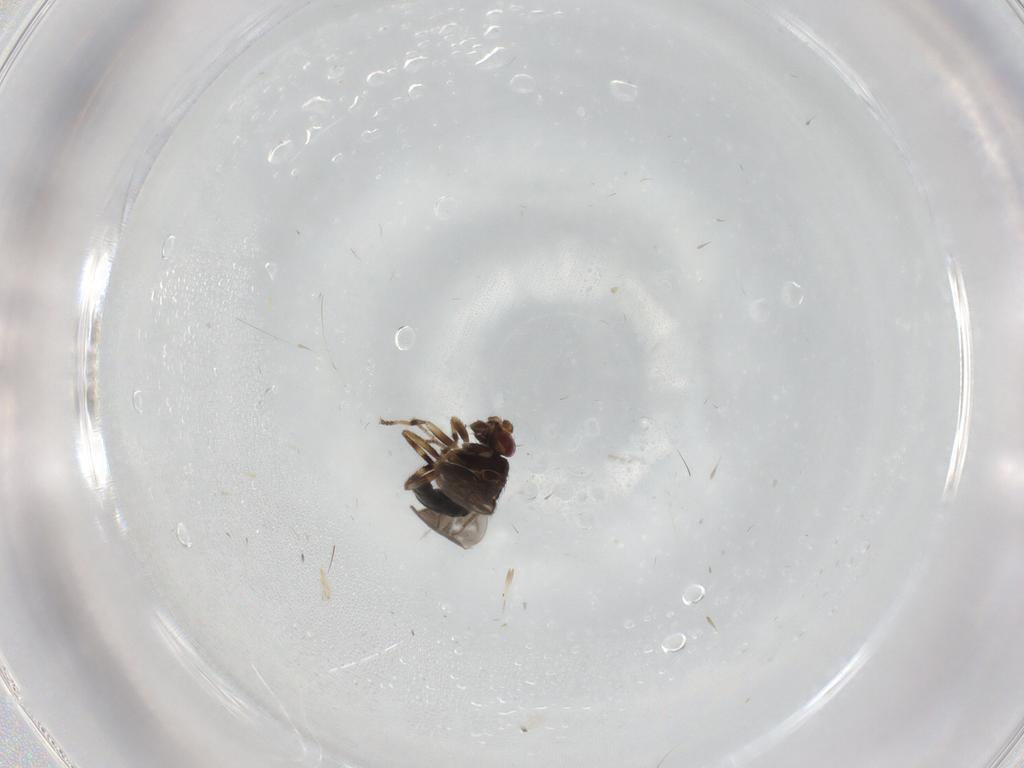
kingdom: Animalia
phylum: Arthropoda
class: Insecta
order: Diptera
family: Sphaeroceridae
